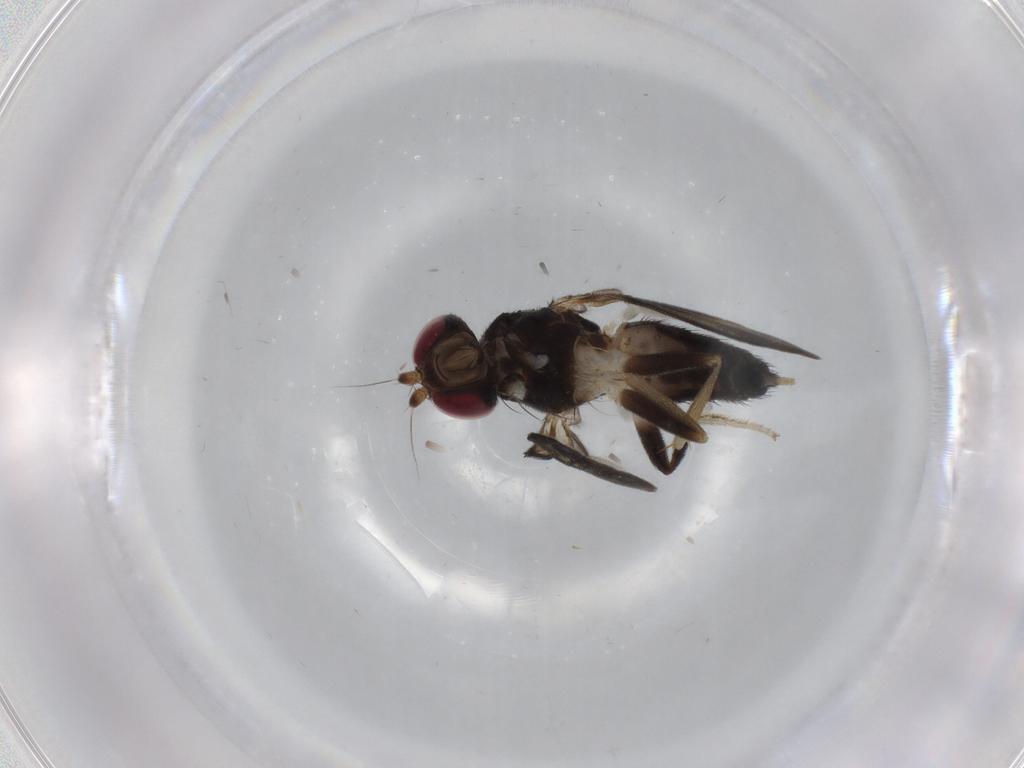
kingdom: Animalia
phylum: Arthropoda
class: Insecta
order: Diptera
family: Clusiidae
